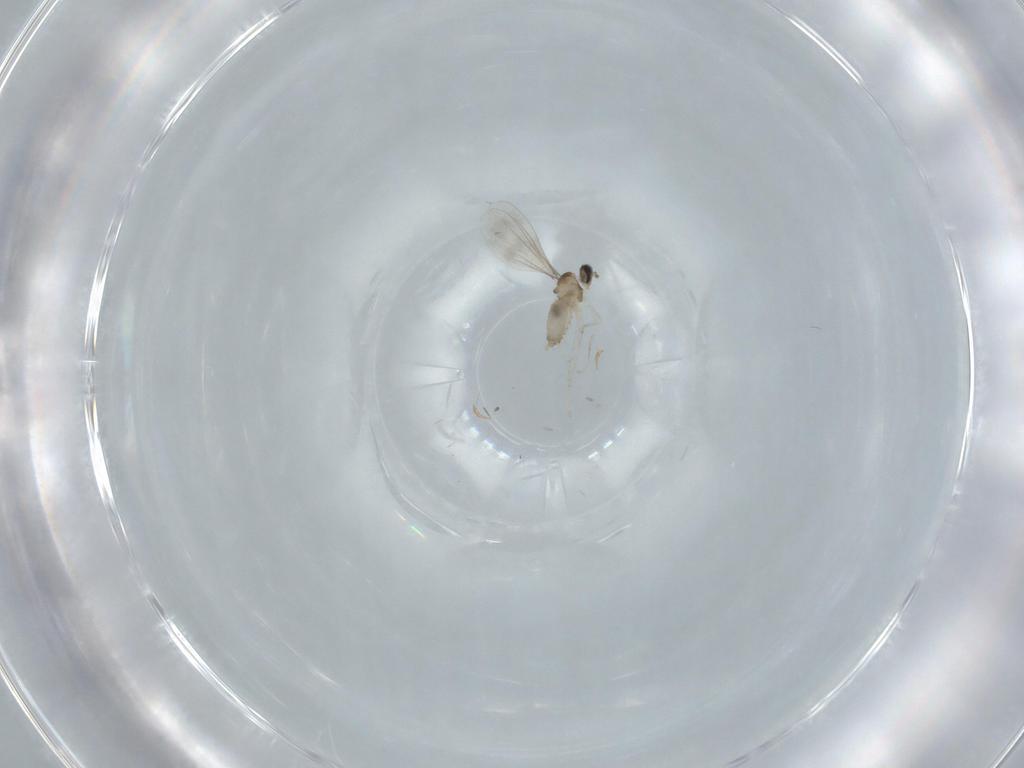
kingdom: Animalia
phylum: Arthropoda
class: Insecta
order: Diptera
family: Cecidomyiidae
